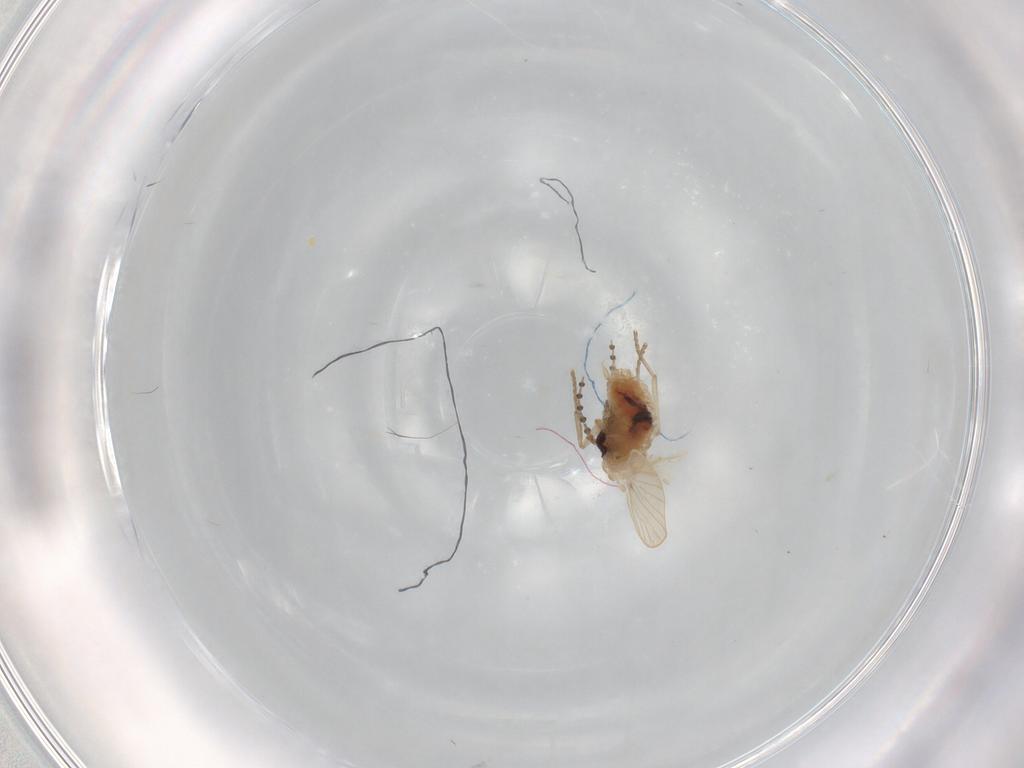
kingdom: Animalia
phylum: Arthropoda
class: Insecta
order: Diptera
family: Psychodidae
